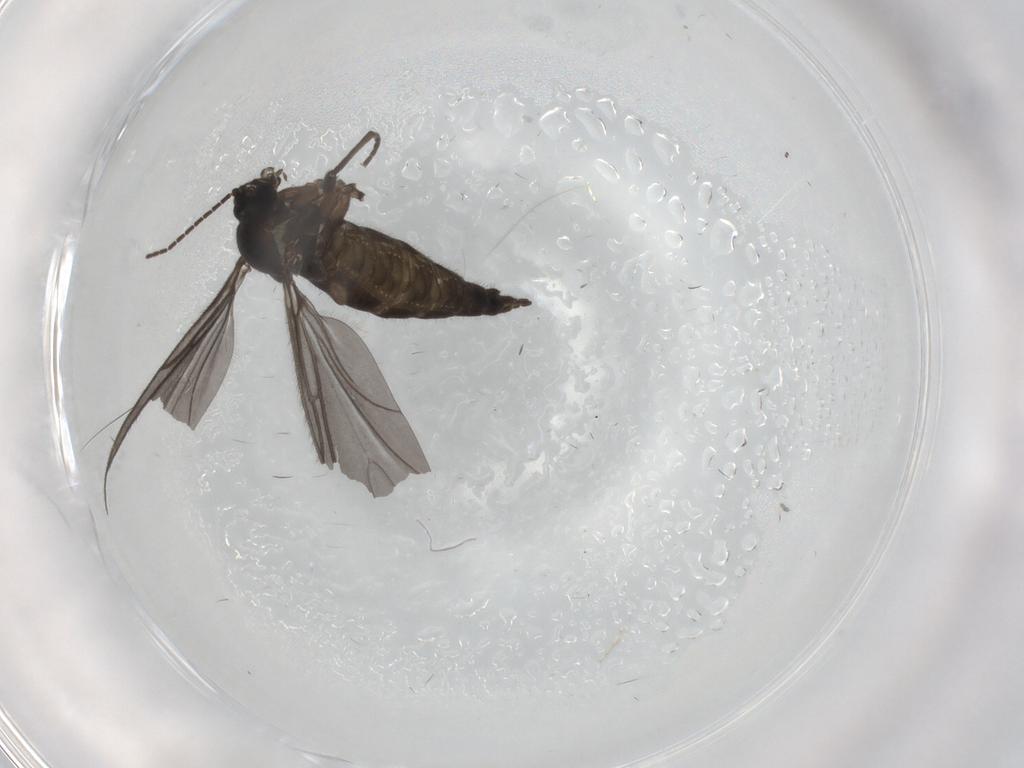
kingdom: Animalia
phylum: Arthropoda
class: Insecta
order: Diptera
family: Sciaridae
